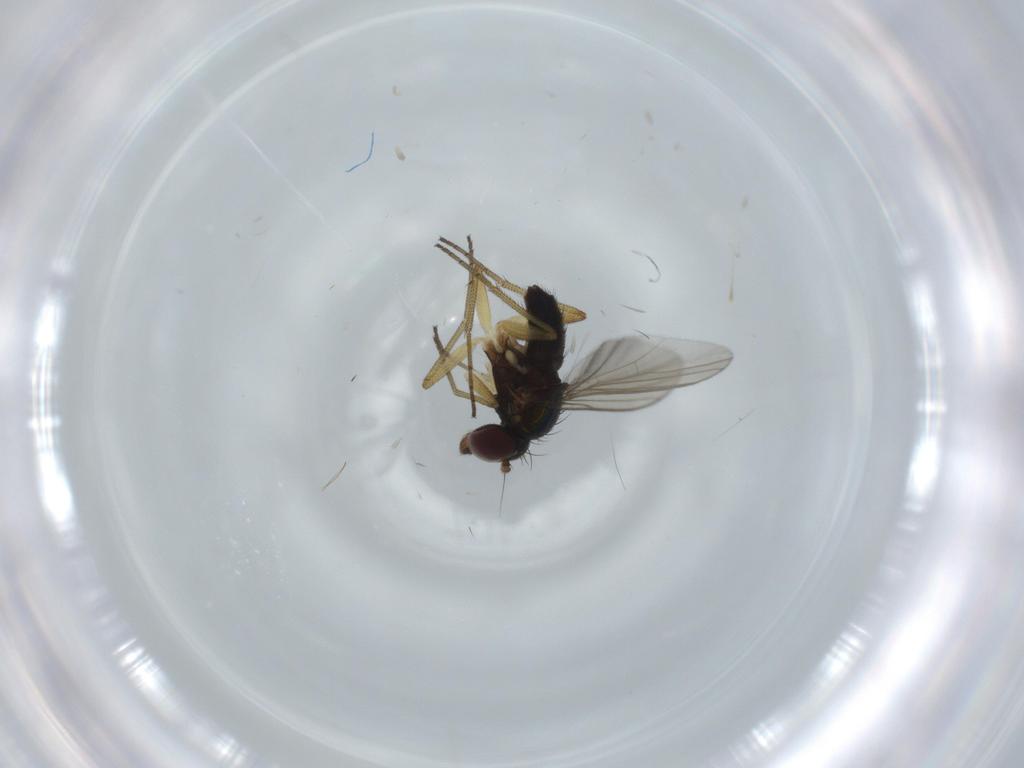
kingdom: Animalia
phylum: Arthropoda
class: Insecta
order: Diptera
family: Dolichopodidae
